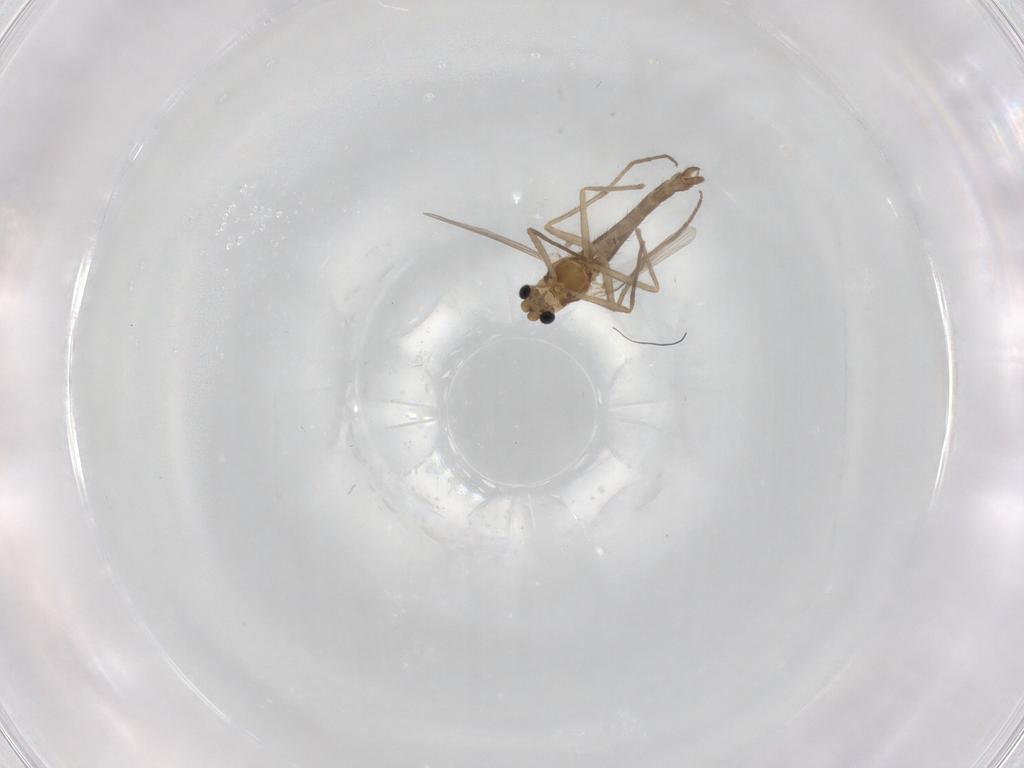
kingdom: Animalia
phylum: Arthropoda
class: Insecta
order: Diptera
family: Chironomidae
